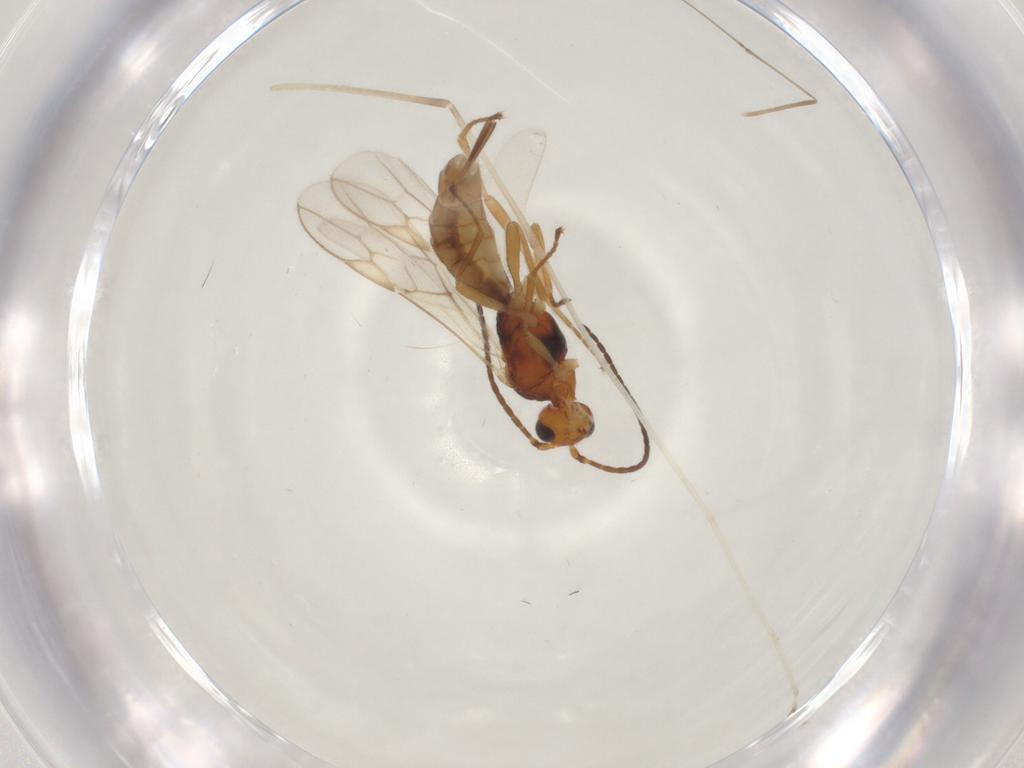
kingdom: Animalia
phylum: Arthropoda
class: Insecta
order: Hymenoptera
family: Braconidae
